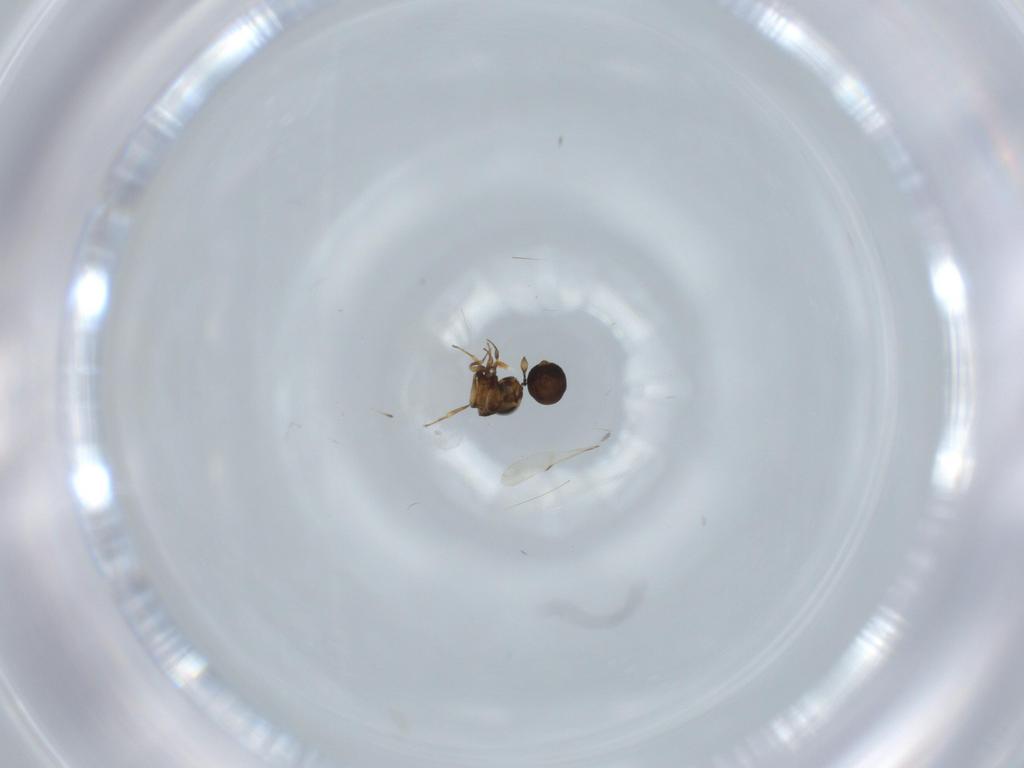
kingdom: Animalia
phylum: Arthropoda
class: Insecta
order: Hymenoptera
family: Scelionidae
